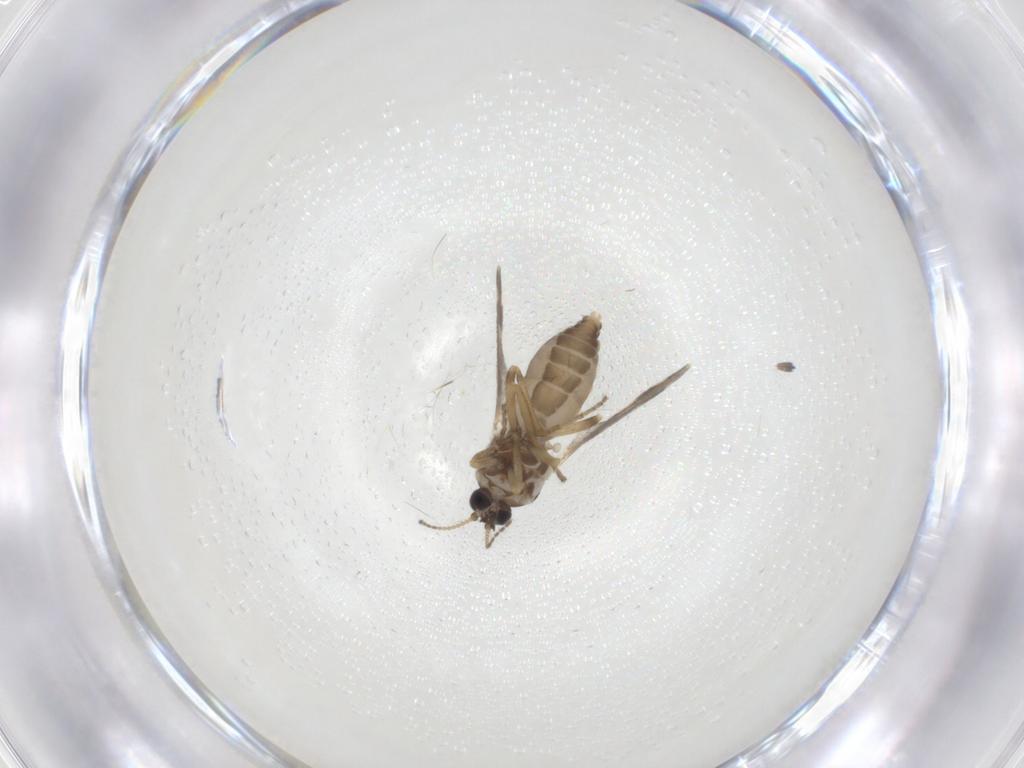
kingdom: Animalia
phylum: Arthropoda
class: Insecta
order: Diptera
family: Ceratopogonidae
